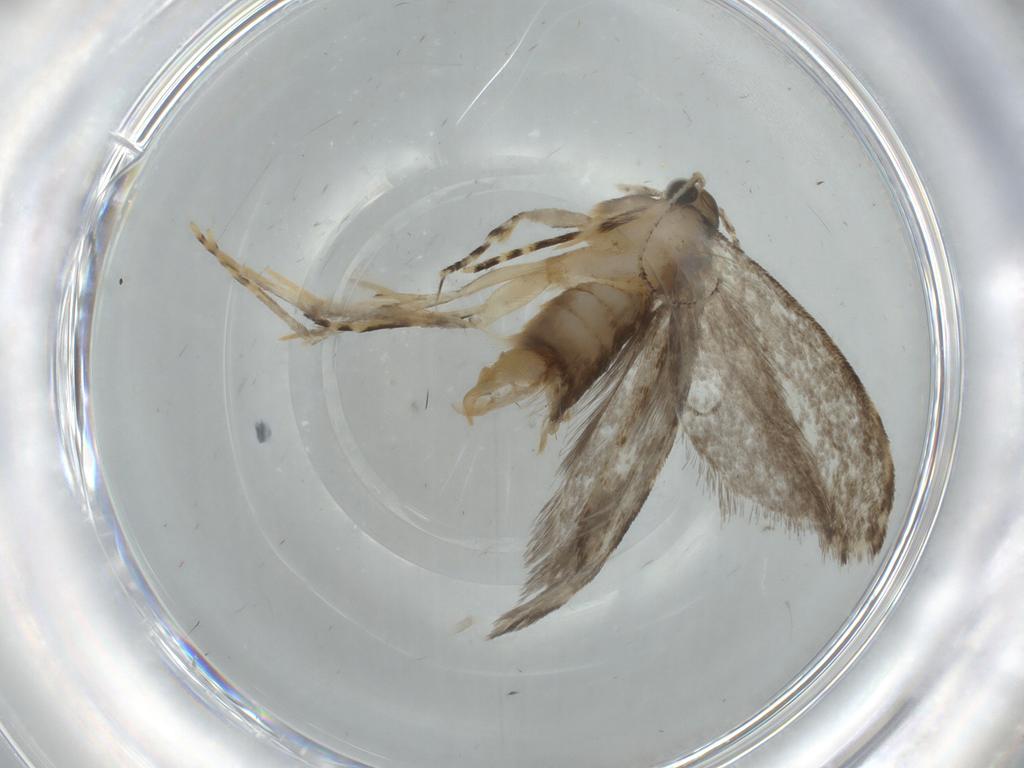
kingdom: Animalia
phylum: Arthropoda
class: Insecta
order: Lepidoptera
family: Tineidae
